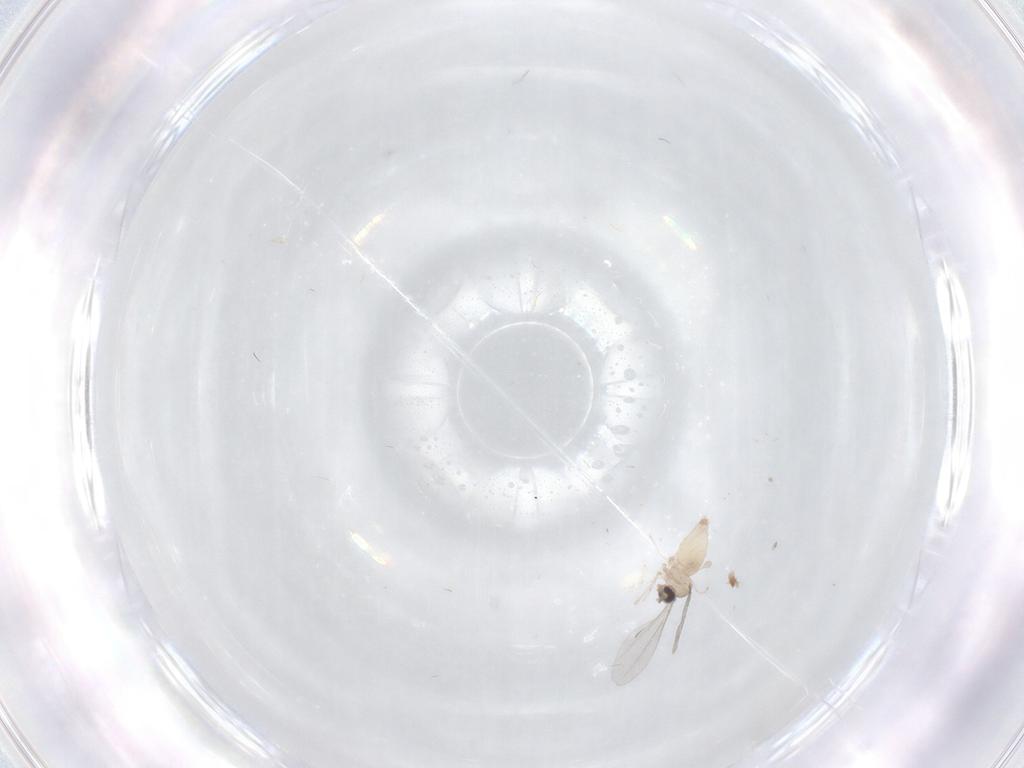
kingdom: Animalia
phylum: Arthropoda
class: Insecta
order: Diptera
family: Cecidomyiidae
